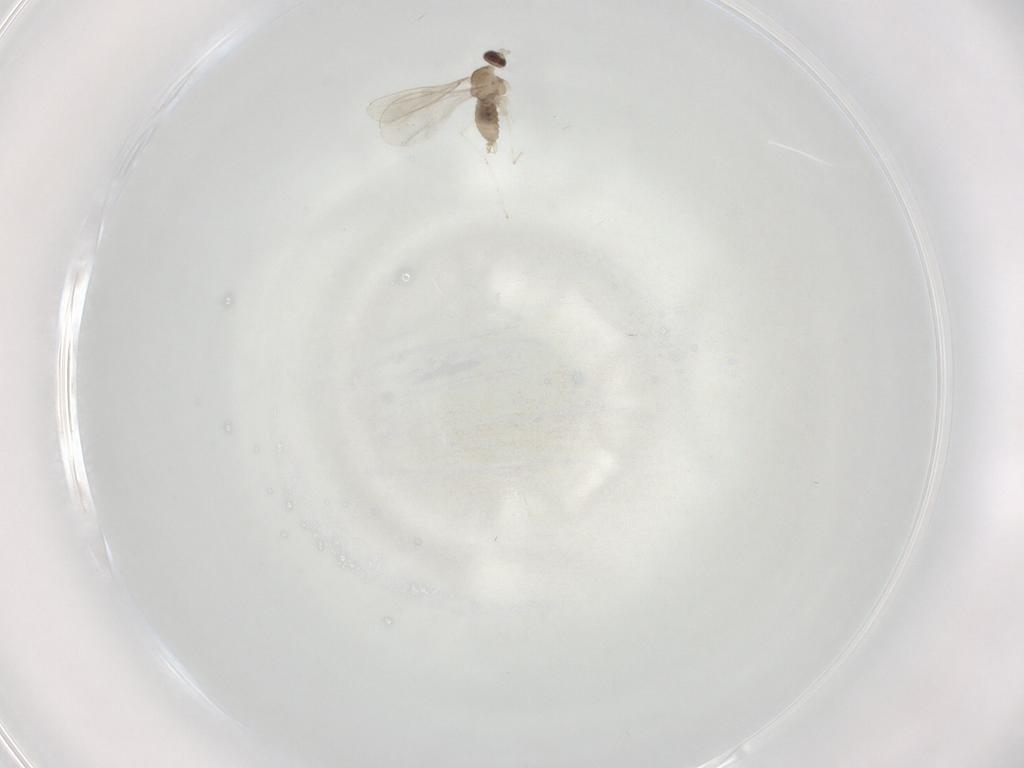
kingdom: Animalia
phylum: Arthropoda
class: Insecta
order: Diptera
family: Cecidomyiidae
